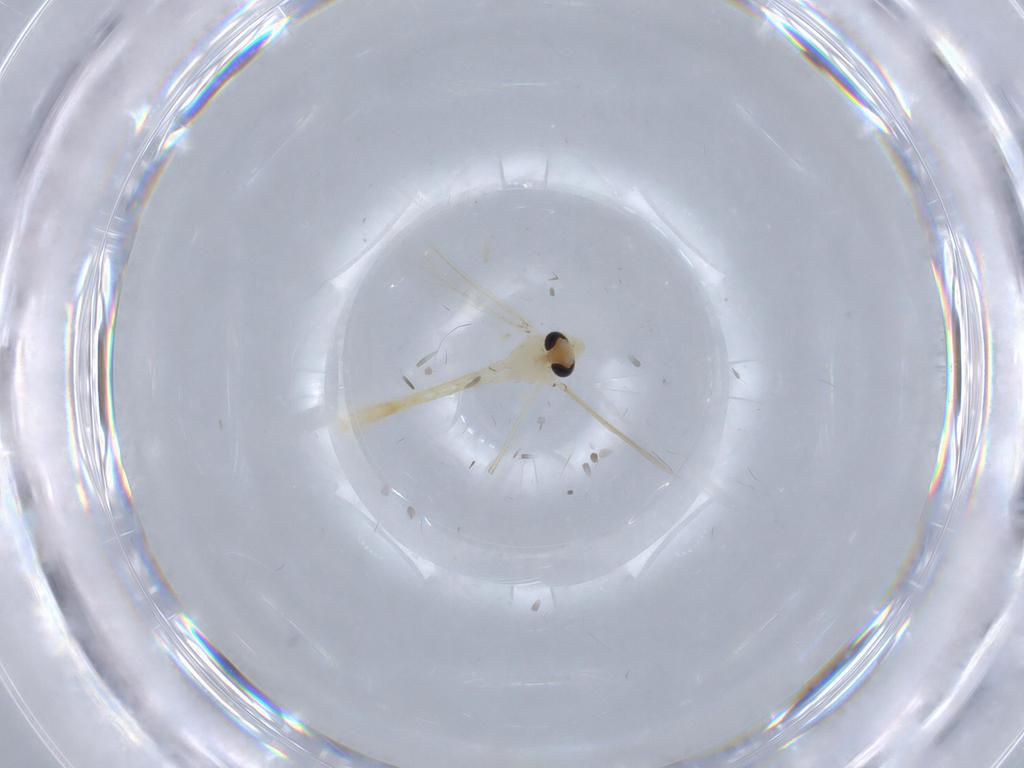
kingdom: Animalia
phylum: Arthropoda
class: Insecta
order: Diptera
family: Chironomidae
